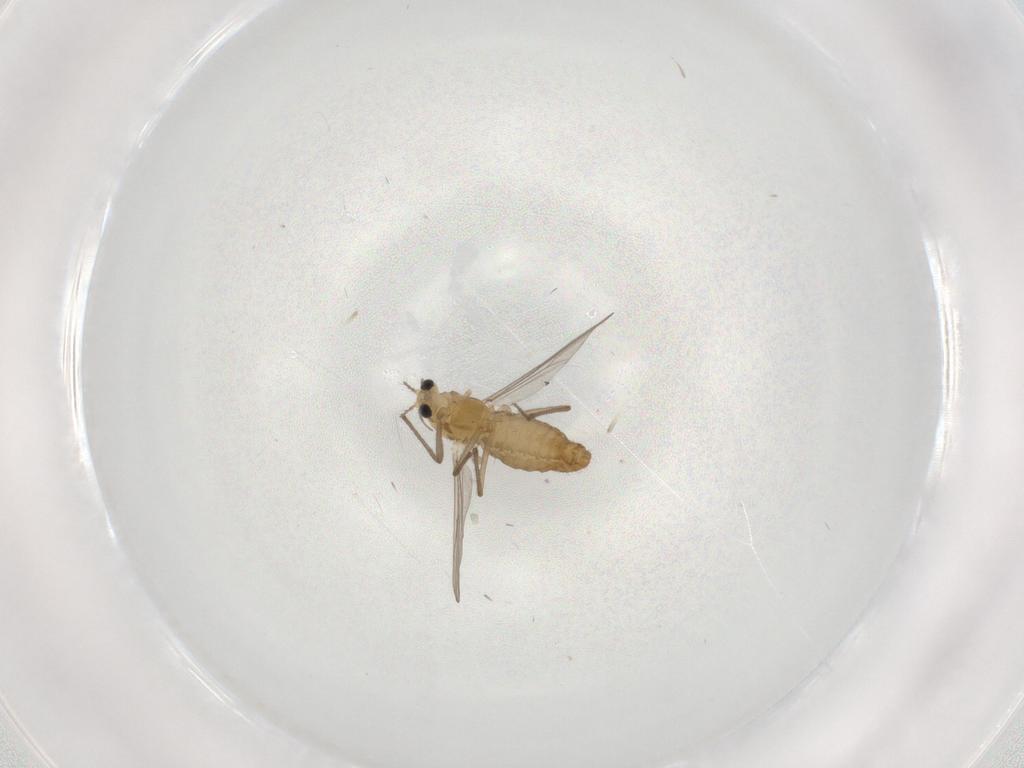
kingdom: Animalia
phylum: Arthropoda
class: Insecta
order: Diptera
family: Chironomidae
